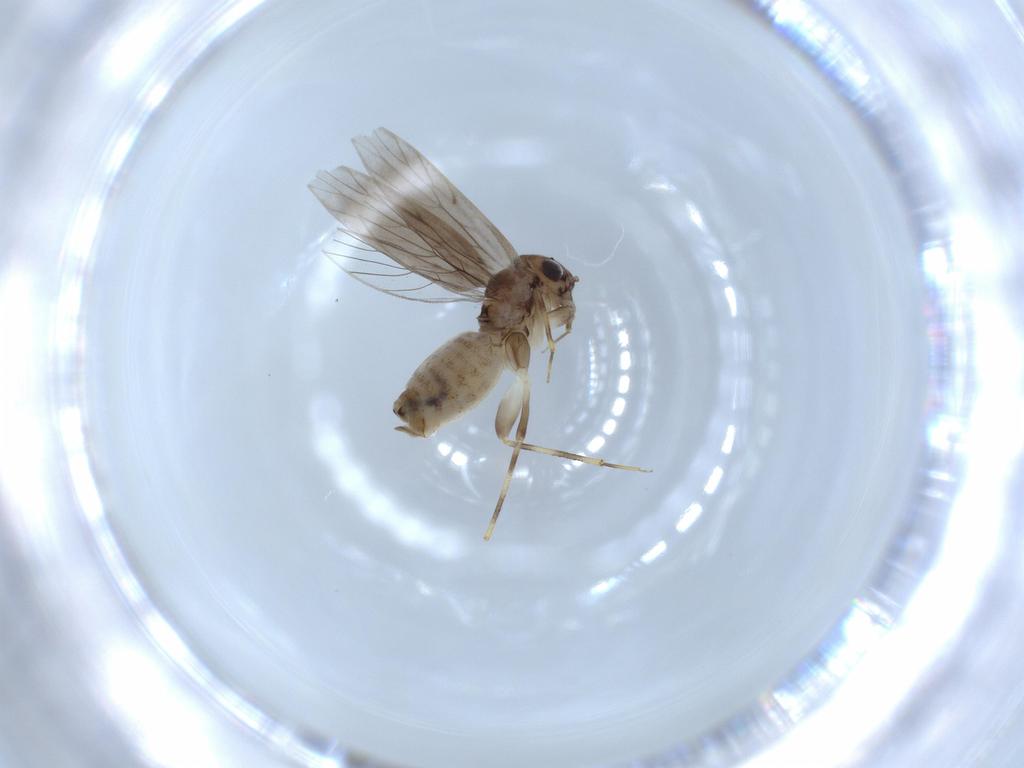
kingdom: Animalia
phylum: Arthropoda
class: Insecta
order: Psocodea
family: Lepidopsocidae
